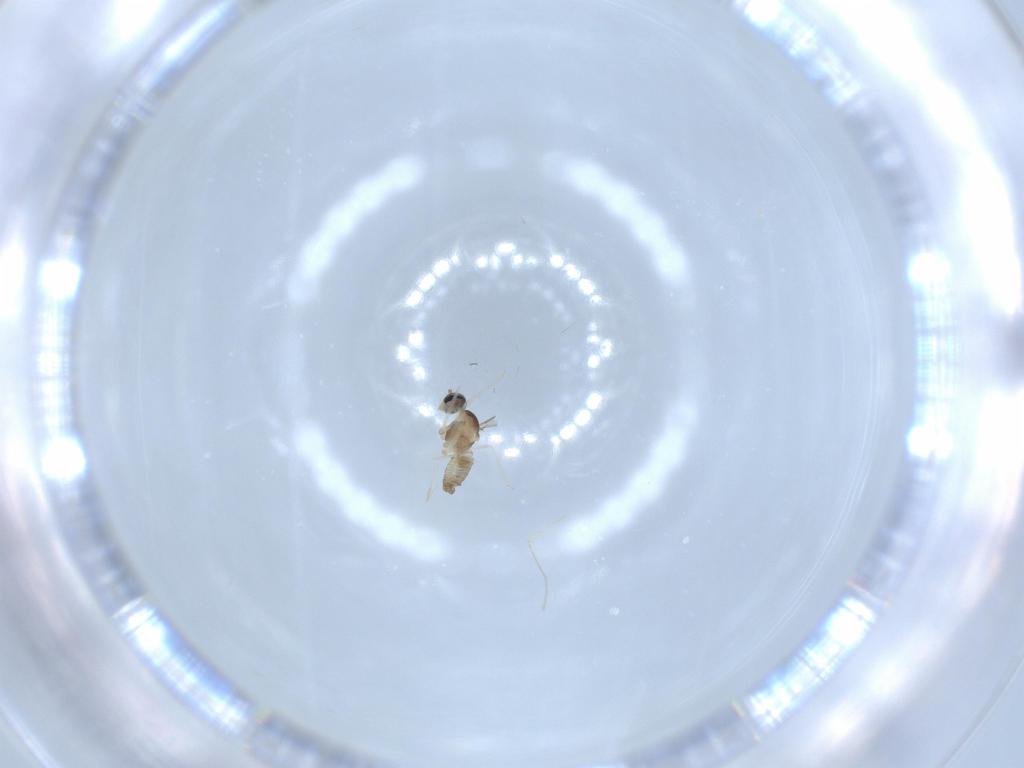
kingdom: Animalia
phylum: Arthropoda
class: Insecta
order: Diptera
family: Cecidomyiidae
